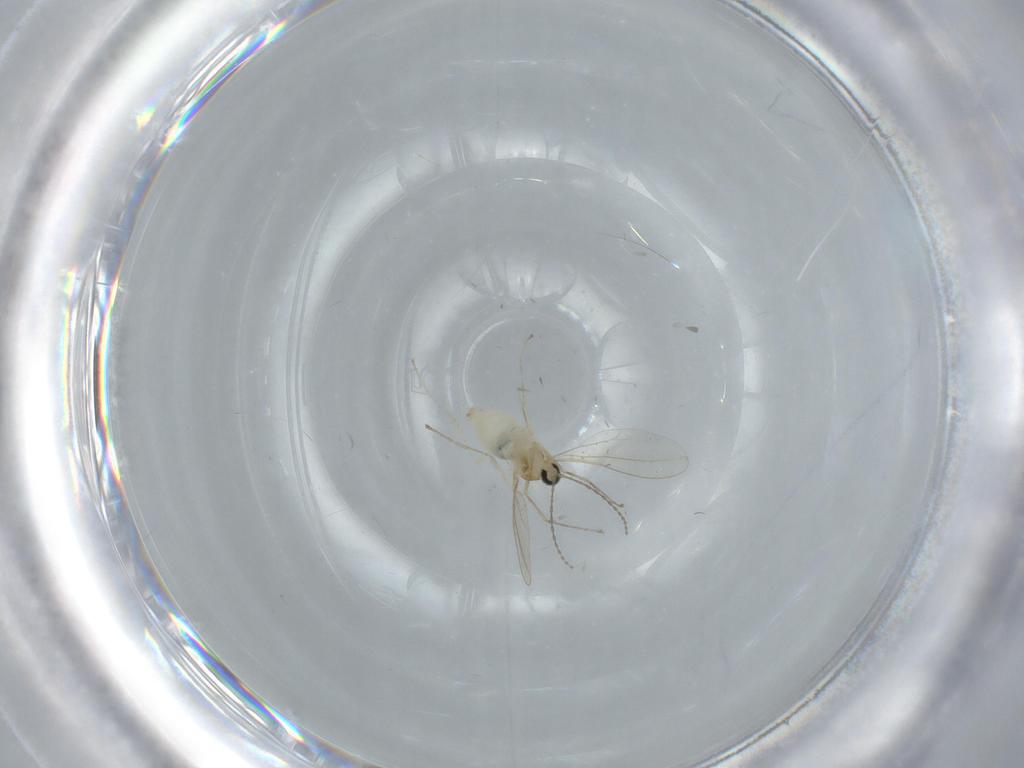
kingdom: Animalia
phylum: Arthropoda
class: Insecta
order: Diptera
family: Cecidomyiidae
